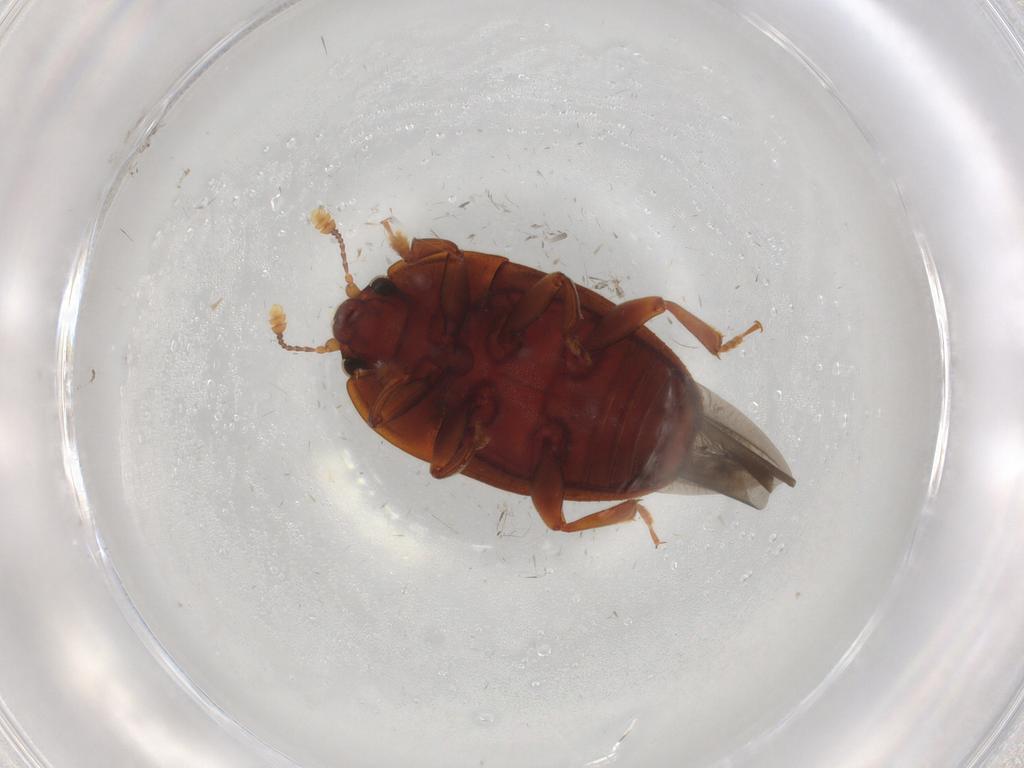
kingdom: Animalia
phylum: Arthropoda
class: Insecta
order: Coleoptera
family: Nitidulidae
